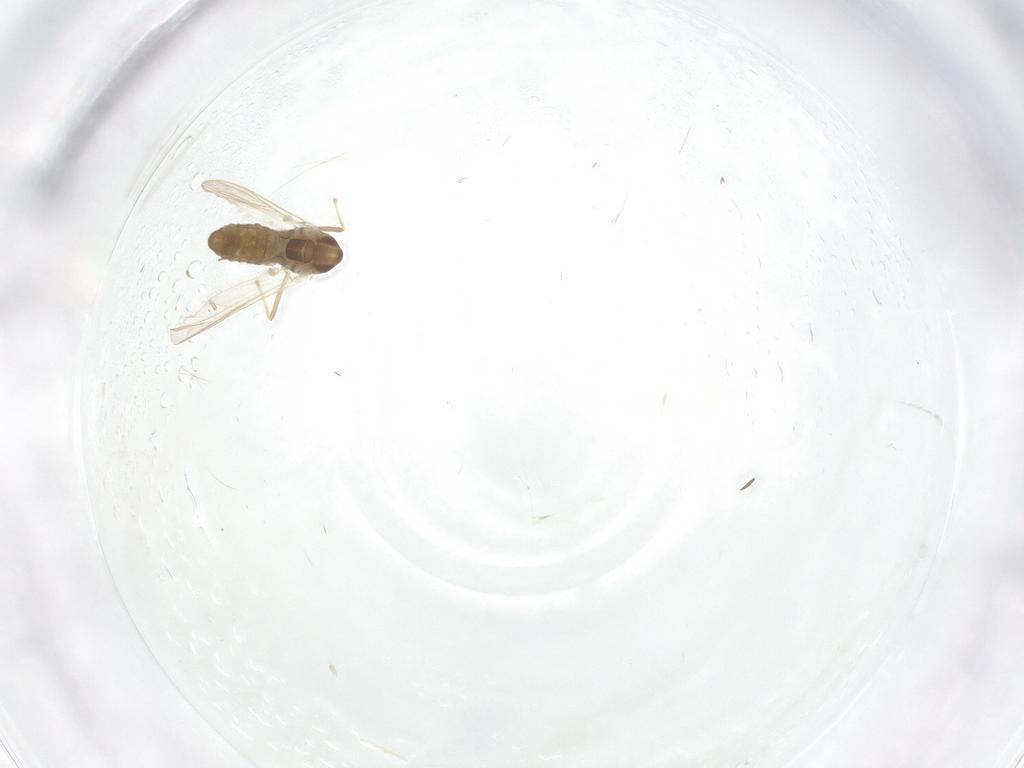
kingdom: Animalia
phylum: Arthropoda
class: Insecta
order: Diptera
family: Chironomidae
